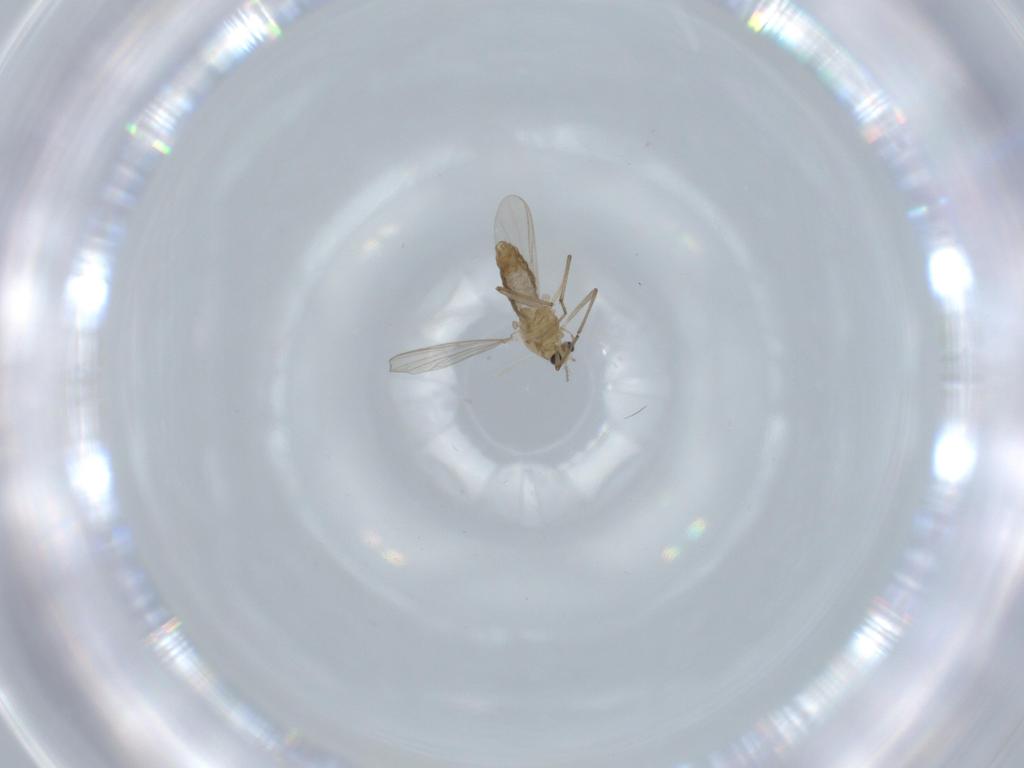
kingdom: Animalia
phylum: Arthropoda
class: Insecta
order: Diptera
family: Chironomidae
